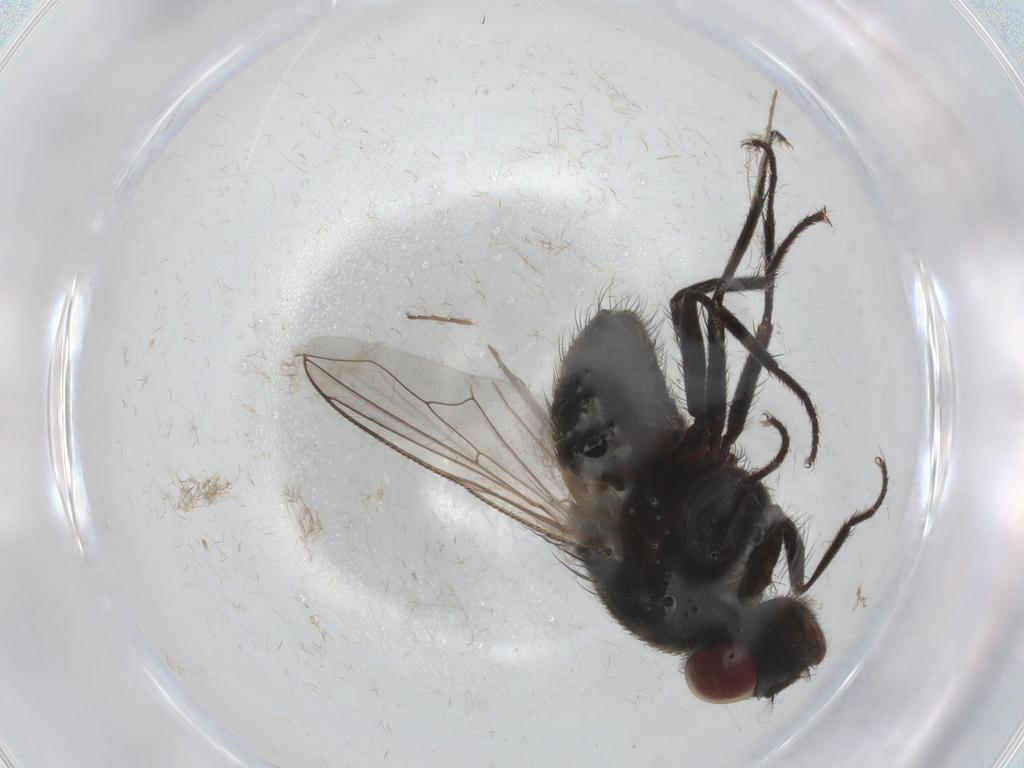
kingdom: Animalia
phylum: Arthropoda
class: Insecta
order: Diptera
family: Muscidae
